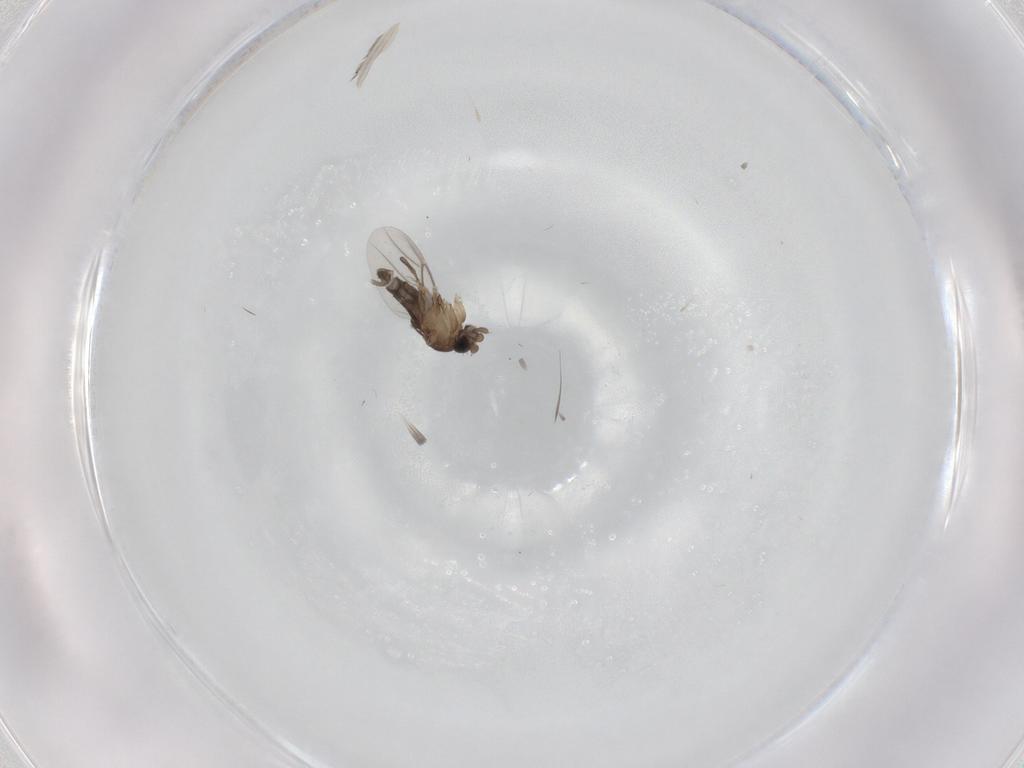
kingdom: Animalia
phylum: Arthropoda
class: Insecta
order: Diptera
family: Phoridae
